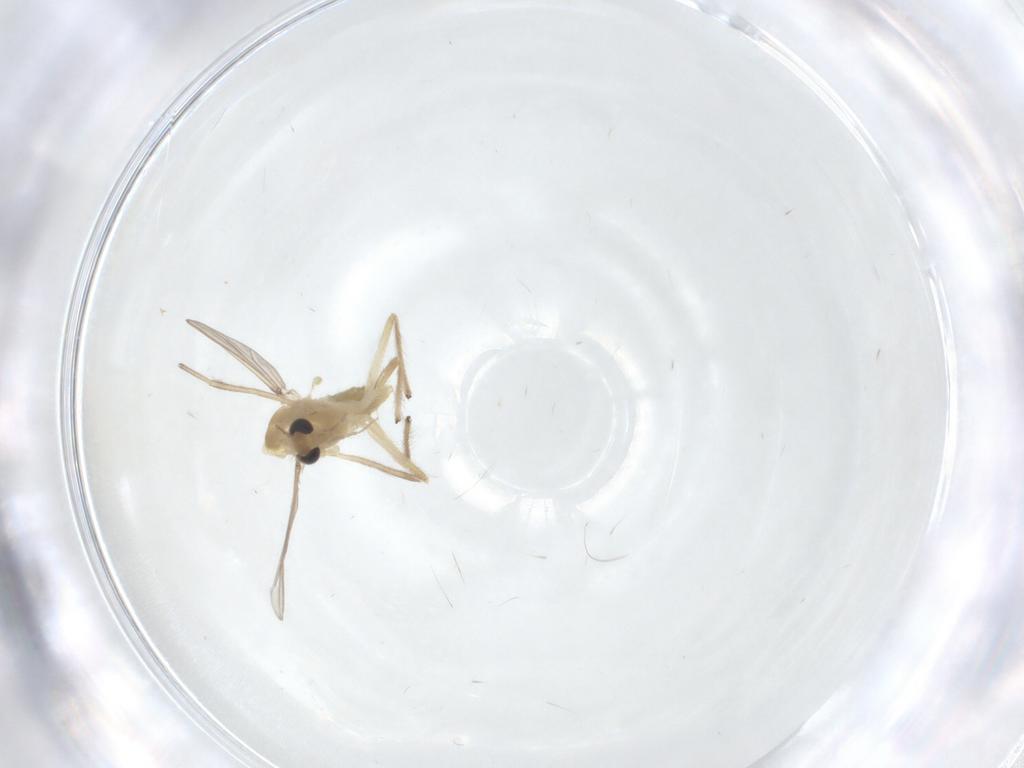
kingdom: Animalia
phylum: Arthropoda
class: Insecta
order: Diptera
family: Chironomidae
